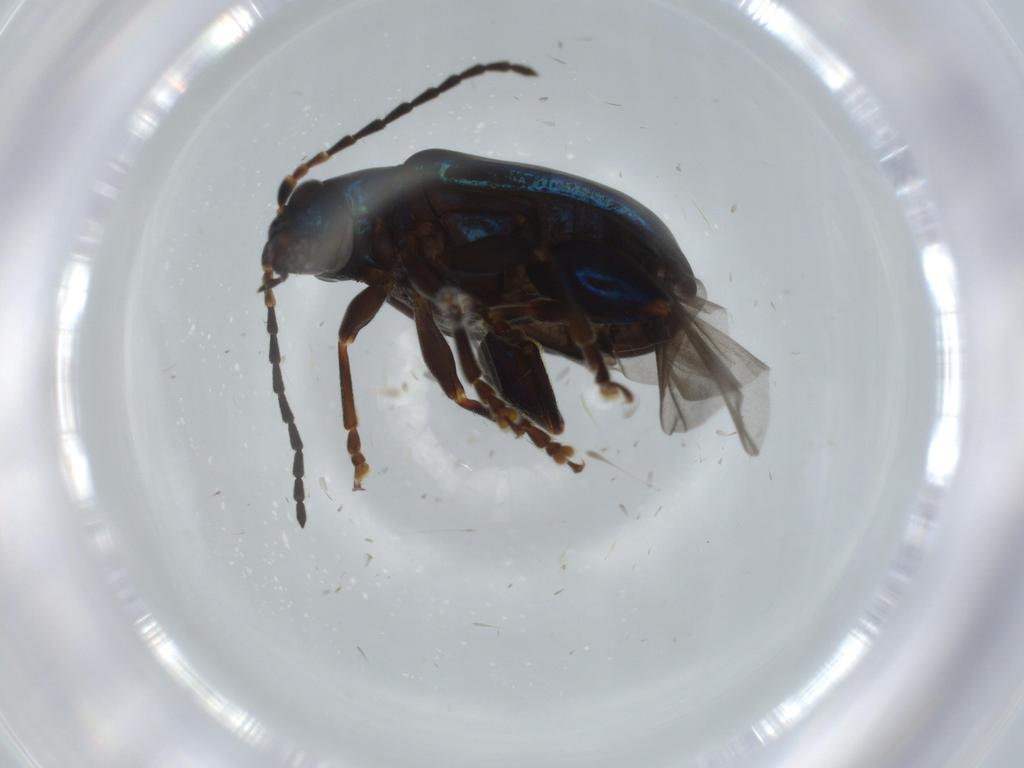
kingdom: Animalia
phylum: Arthropoda
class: Insecta
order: Coleoptera
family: Chrysomelidae
